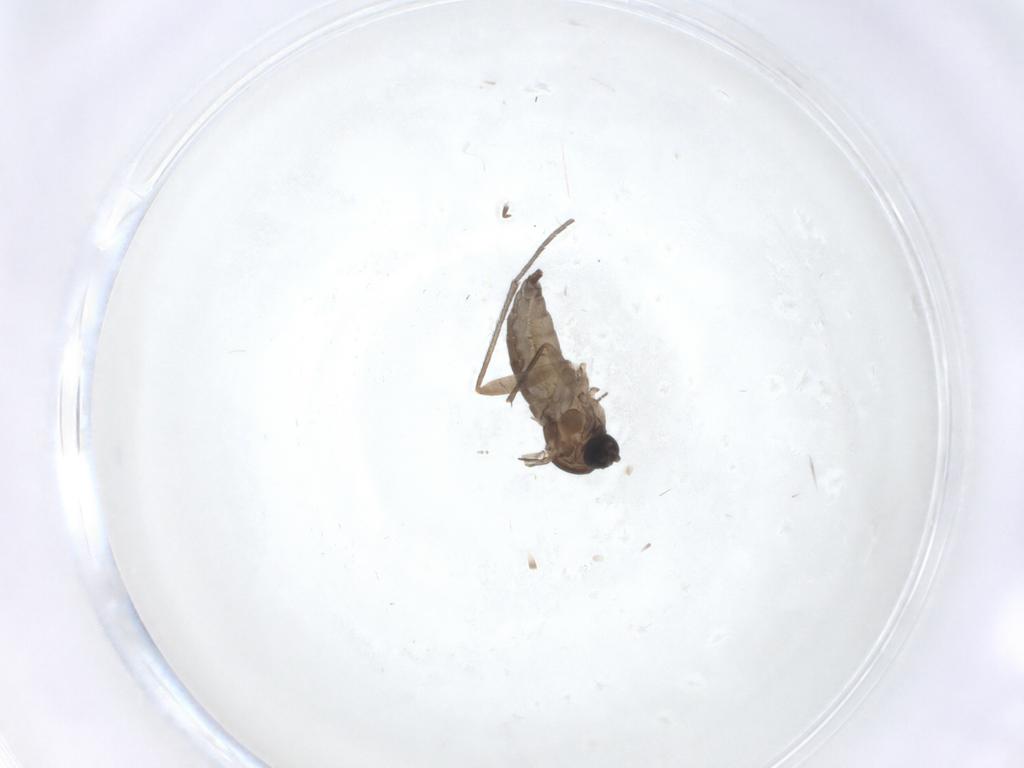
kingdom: Animalia
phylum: Arthropoda
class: Insecta
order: Diptera
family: Sciaridae
